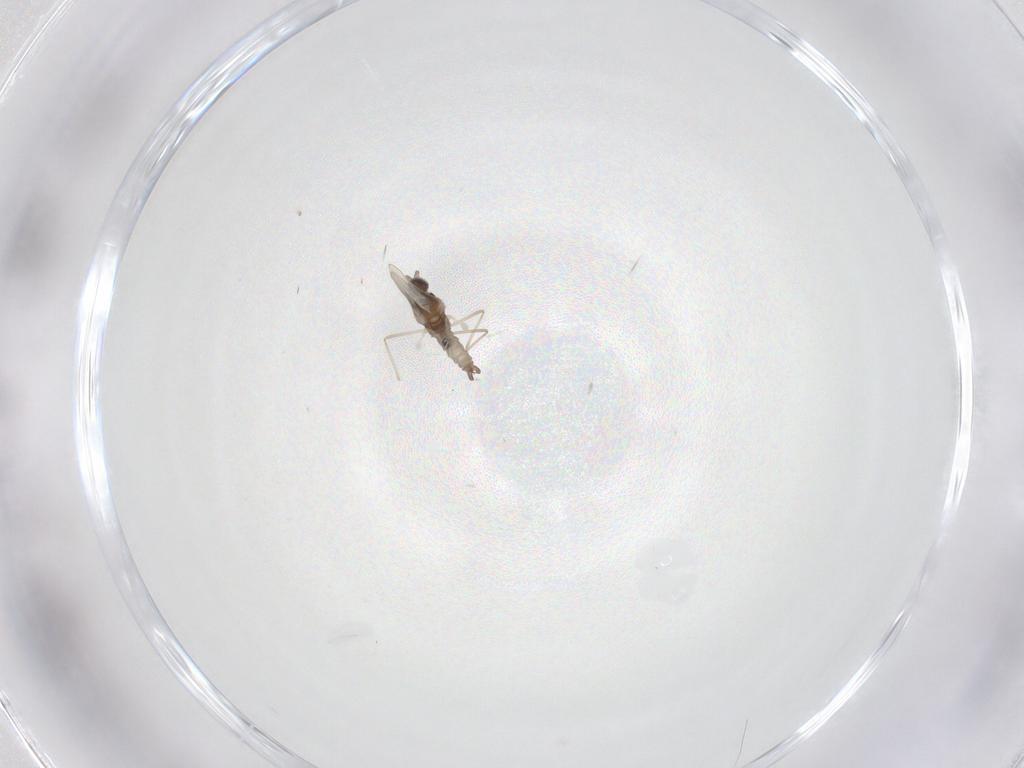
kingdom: Animalia
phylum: Arthropoda
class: Insecta
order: Diptera
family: Cecidomyiidae
